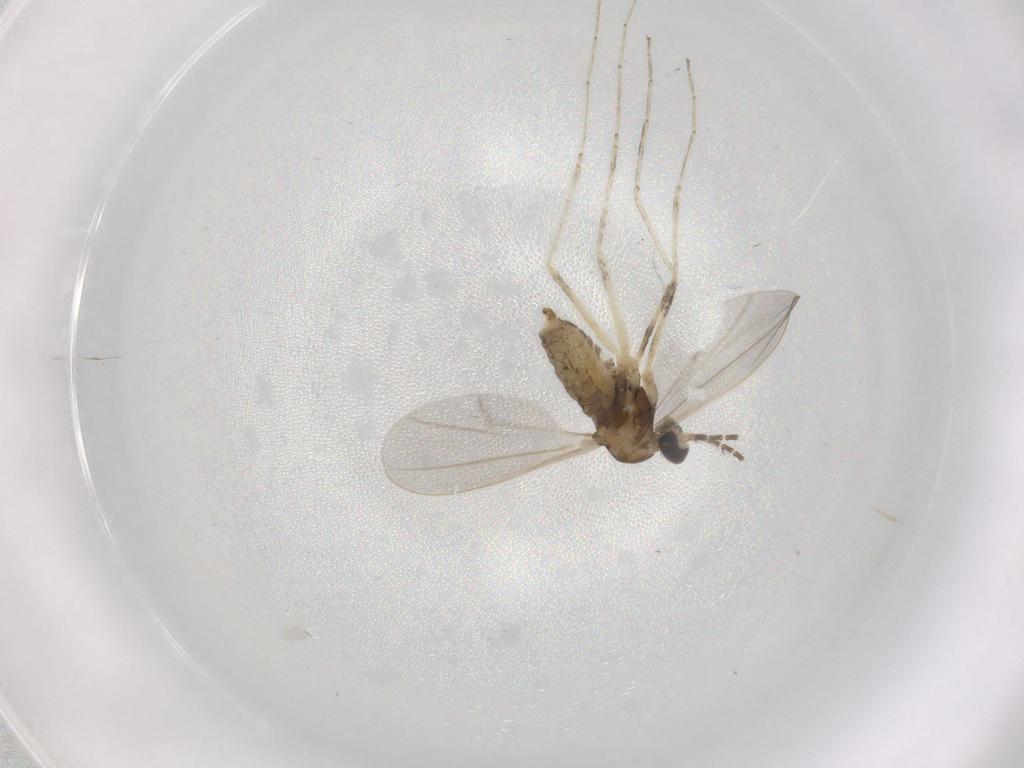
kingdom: Animalia
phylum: Arthropoda
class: Insecta
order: Diptera
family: Cecidomyiidae
